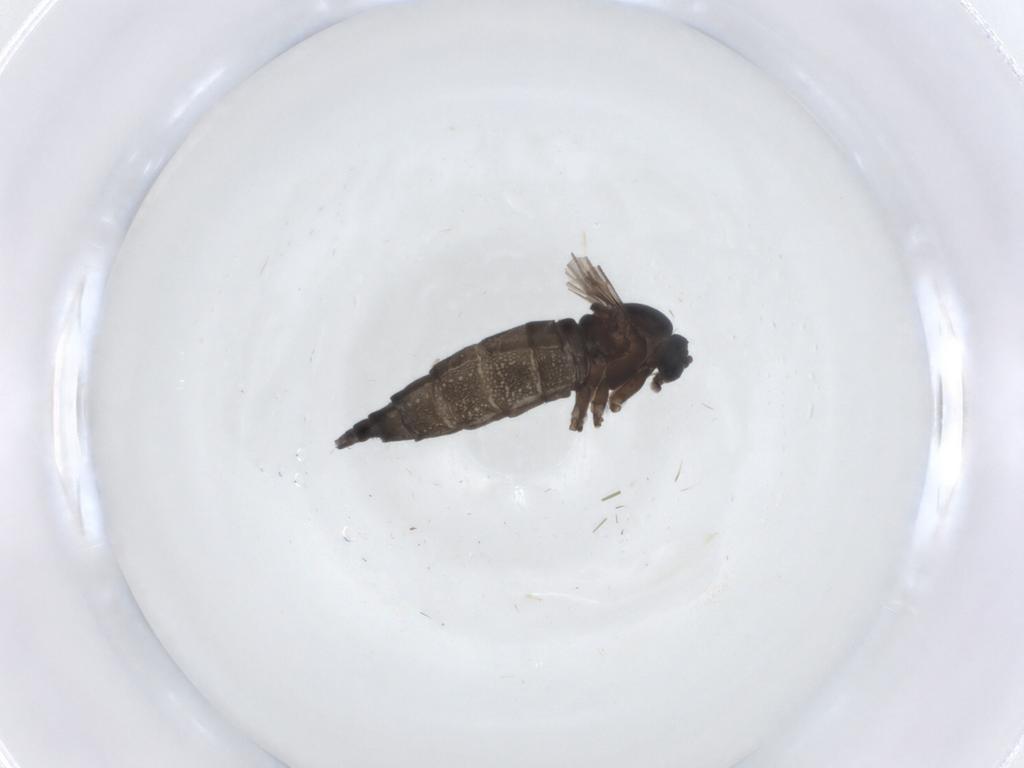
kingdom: Animalia
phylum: Arthropoda
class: Insecta
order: Diptera
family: Sciaridae
